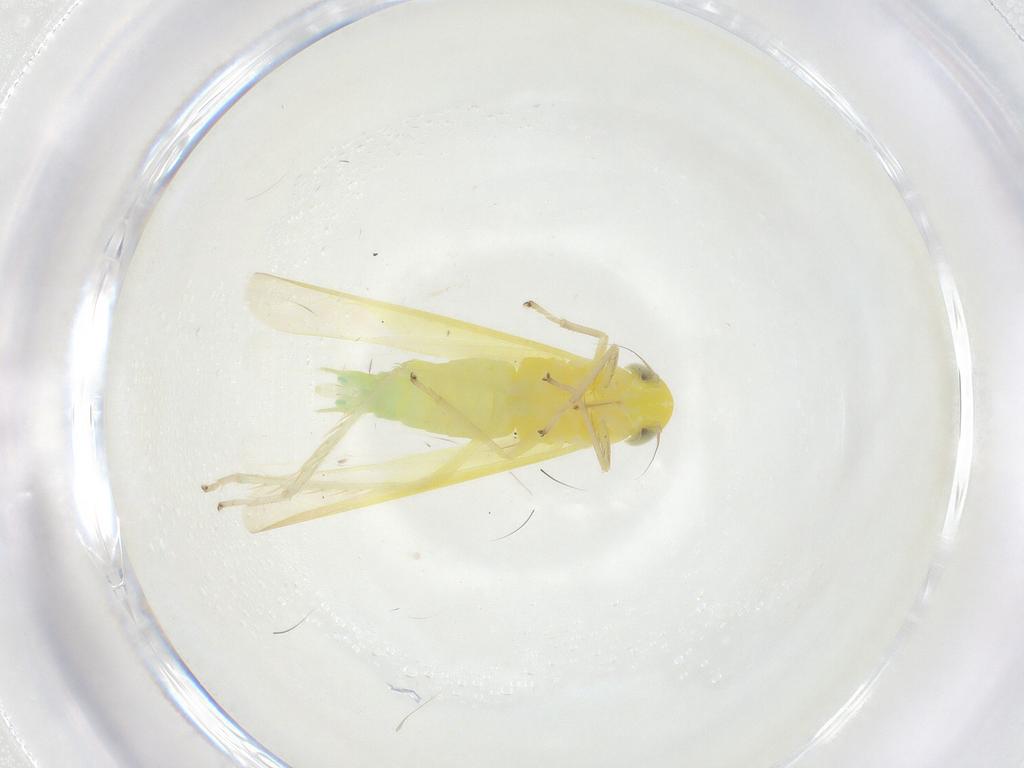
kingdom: Animalia
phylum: Arthropoda
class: Insecta
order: Hemiptera
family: Cicadellidae
